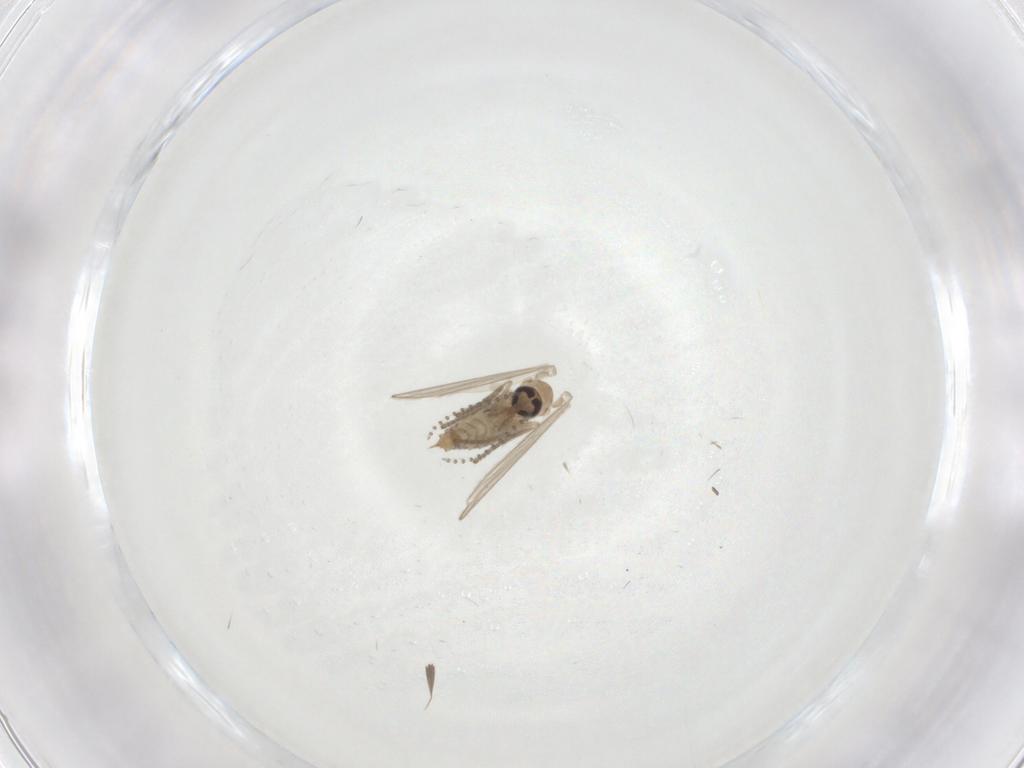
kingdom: Animalia
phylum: Arthropoda
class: Insecta
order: Diptera
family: Psychodidae
